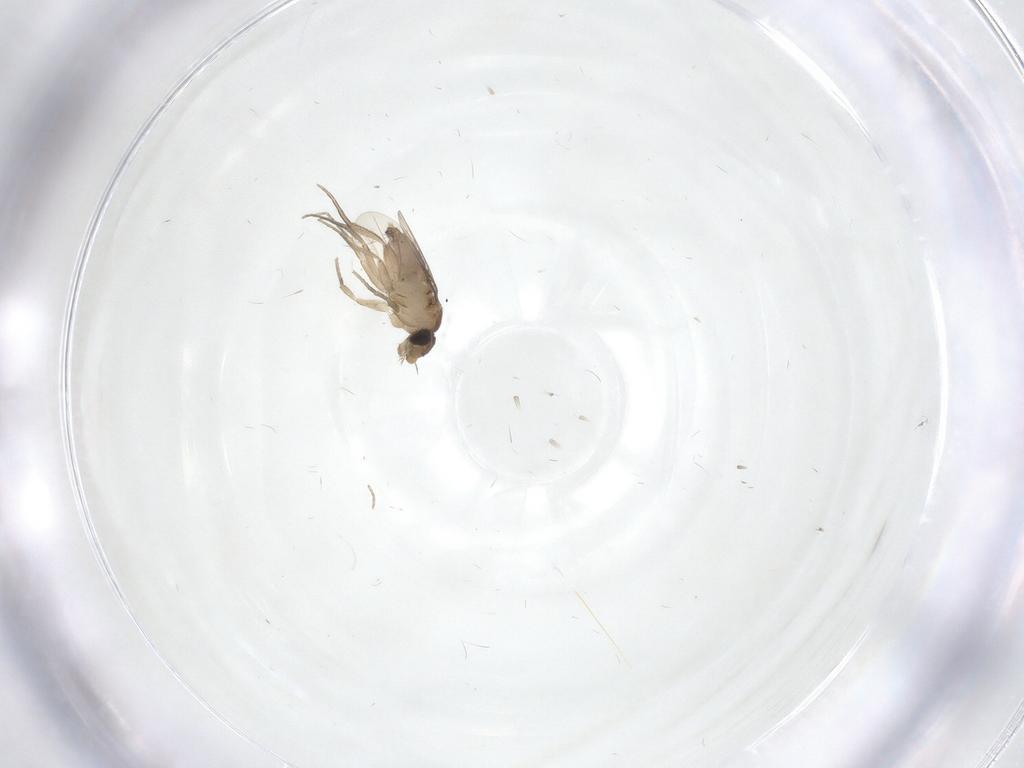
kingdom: Animalia
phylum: Arthropoda
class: Insecta
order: Diptera
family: Phoridae
